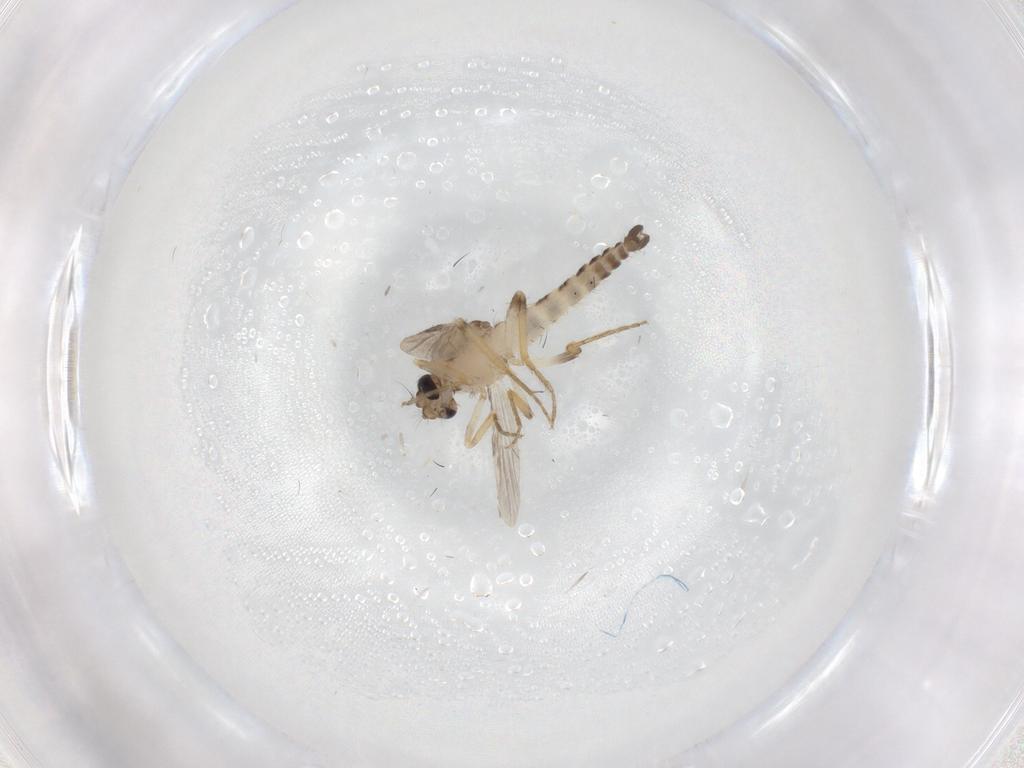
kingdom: Animalia
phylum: Arthropoda
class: Insecta
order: Diptera
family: Ceratopogonidae
